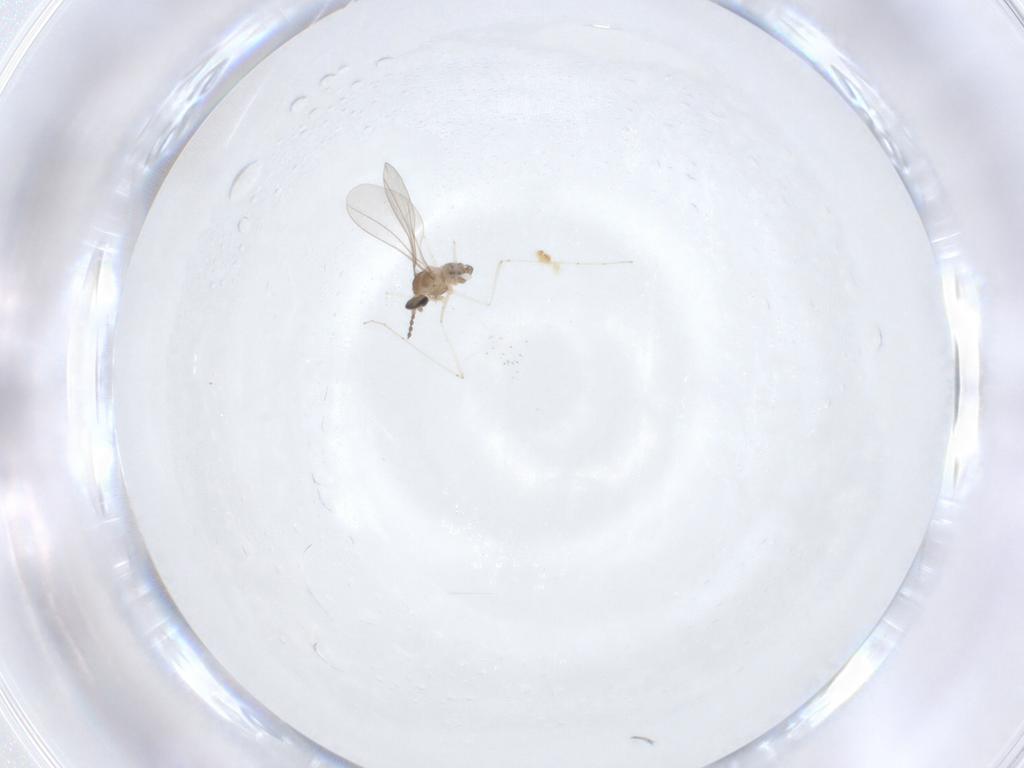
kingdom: Animalia
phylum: Arthropoda
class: Insecta
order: Diptera
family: Cecidomyiidae
